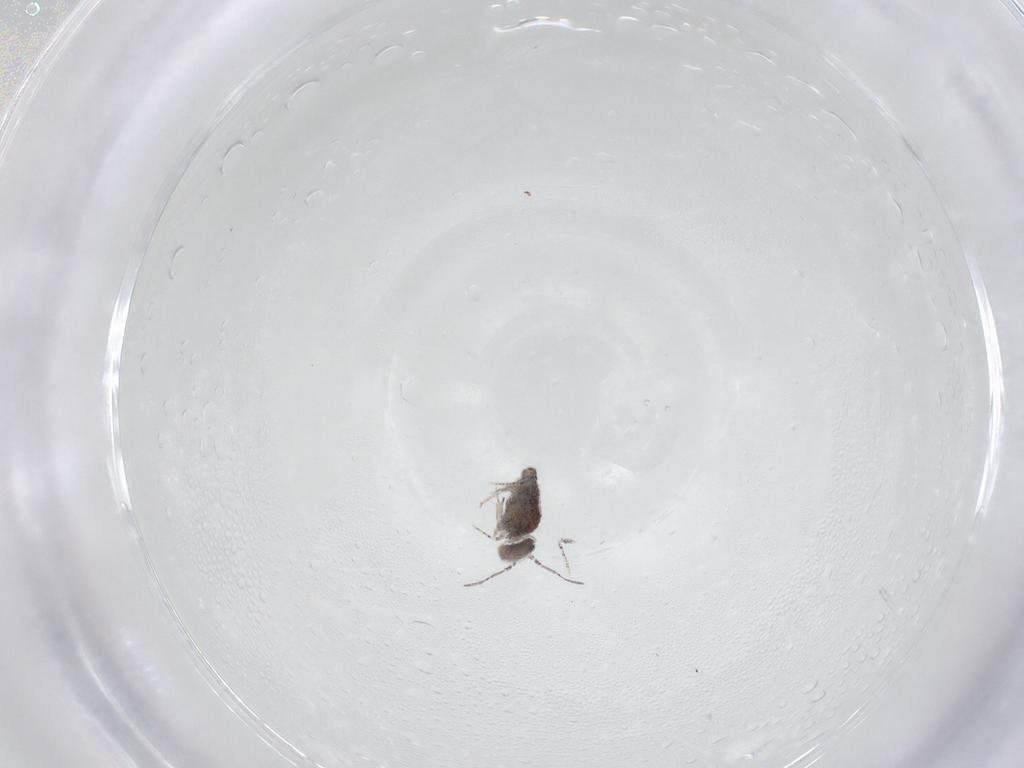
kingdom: Animalia
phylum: Arthropoda
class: Collembola
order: Symphypleona
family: Bourletiellidae
